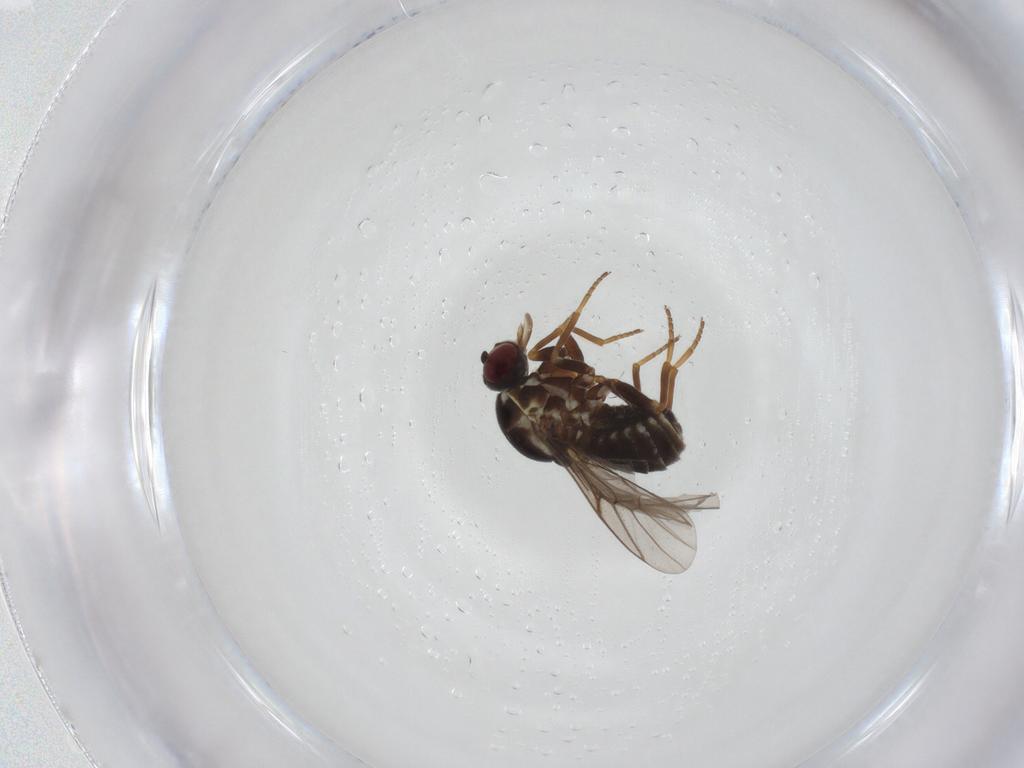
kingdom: Animalia
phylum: Arthropoda
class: Insecta
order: Diptera
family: Bombyliidae
